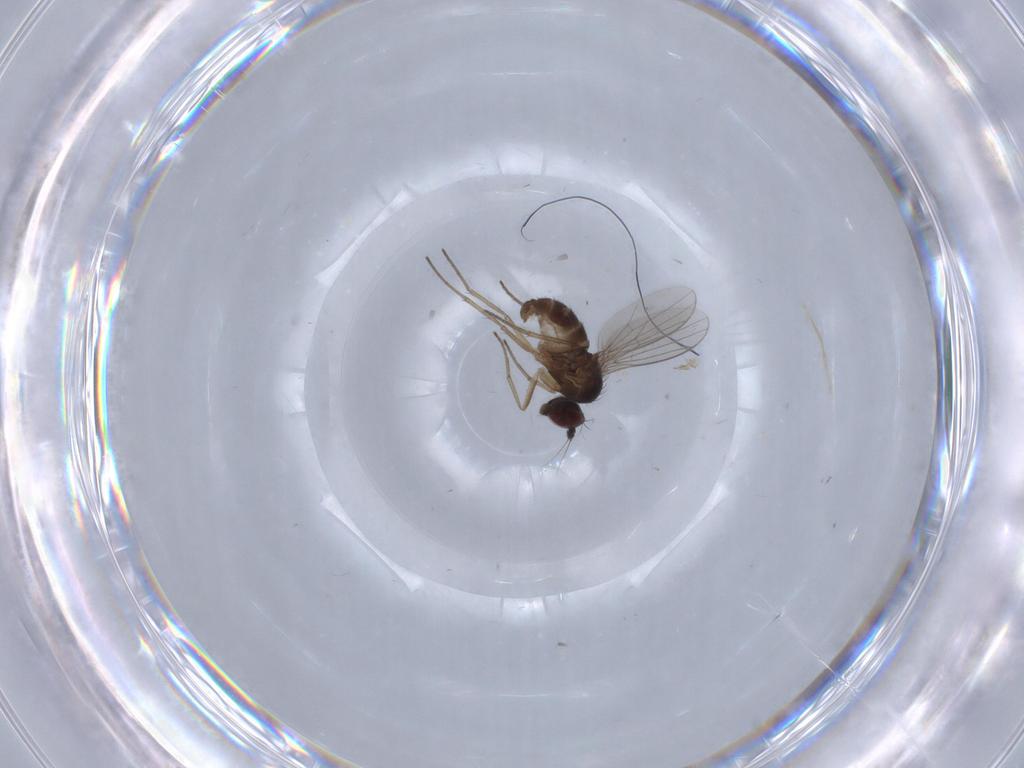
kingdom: Animalia
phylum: Arthropoda
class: Insecta
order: Diptera
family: Dolichopodidae
